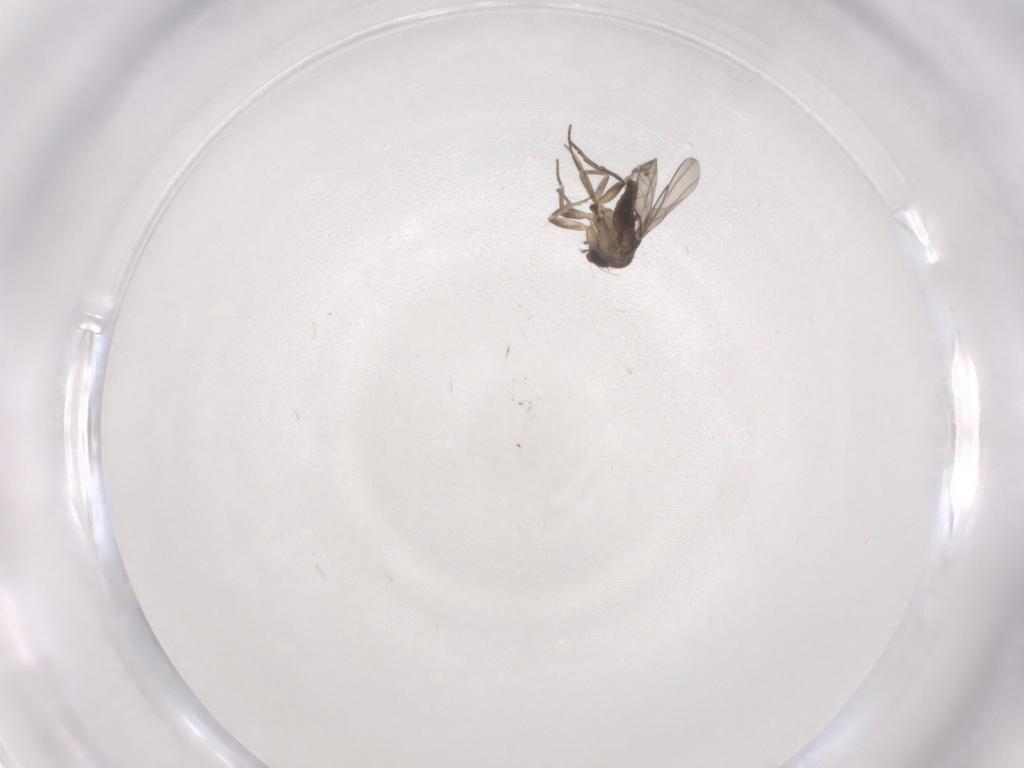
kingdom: Animalia
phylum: Arthropoda
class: Insecta
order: Diptera
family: Phoridae
